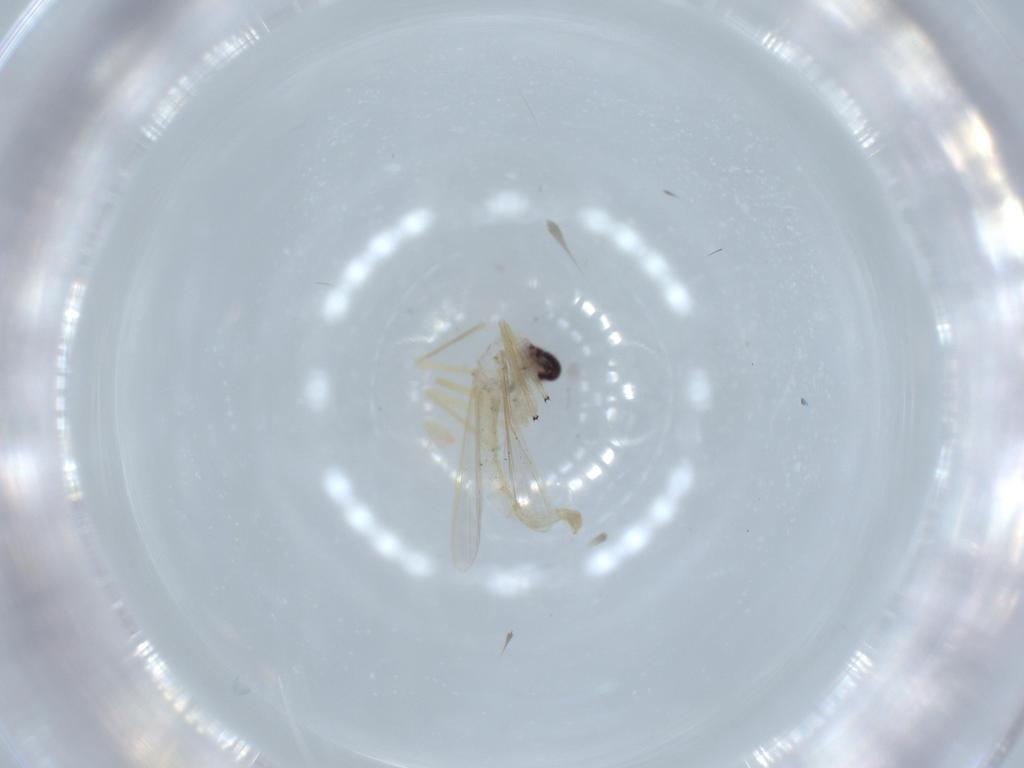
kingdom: Animalia
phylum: Arthropoda
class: Insecta
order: Diptera
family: Chironomidae
